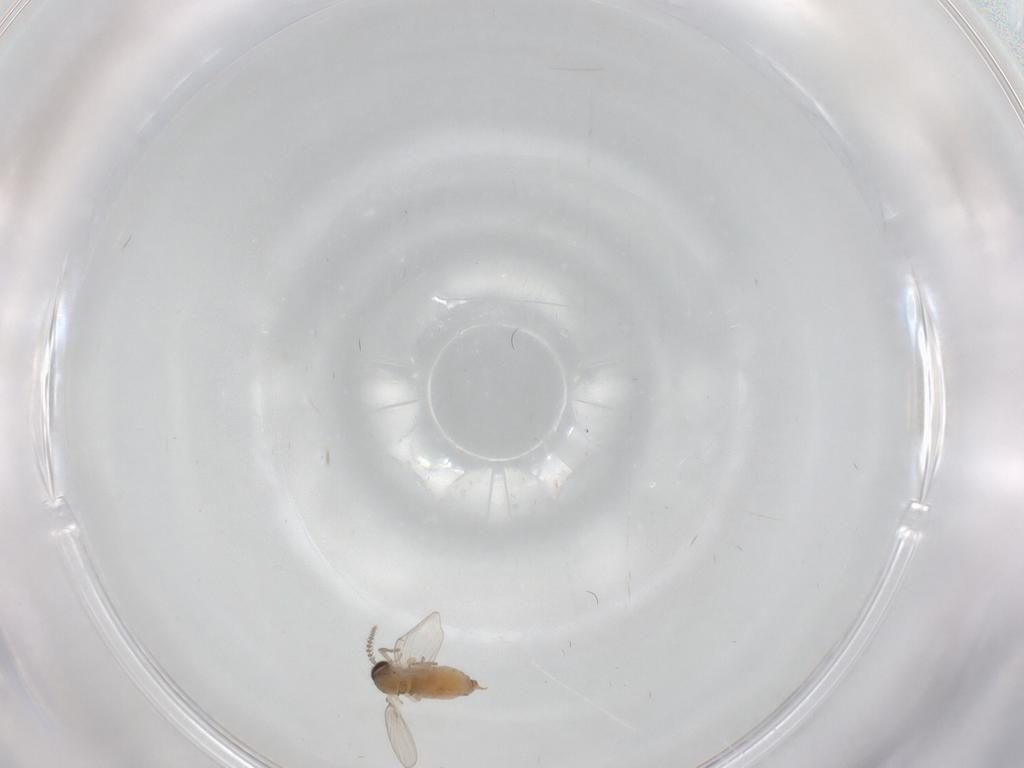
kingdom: Animalia
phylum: Arthropoda
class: Insecta
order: Diptera
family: Psychodidae
